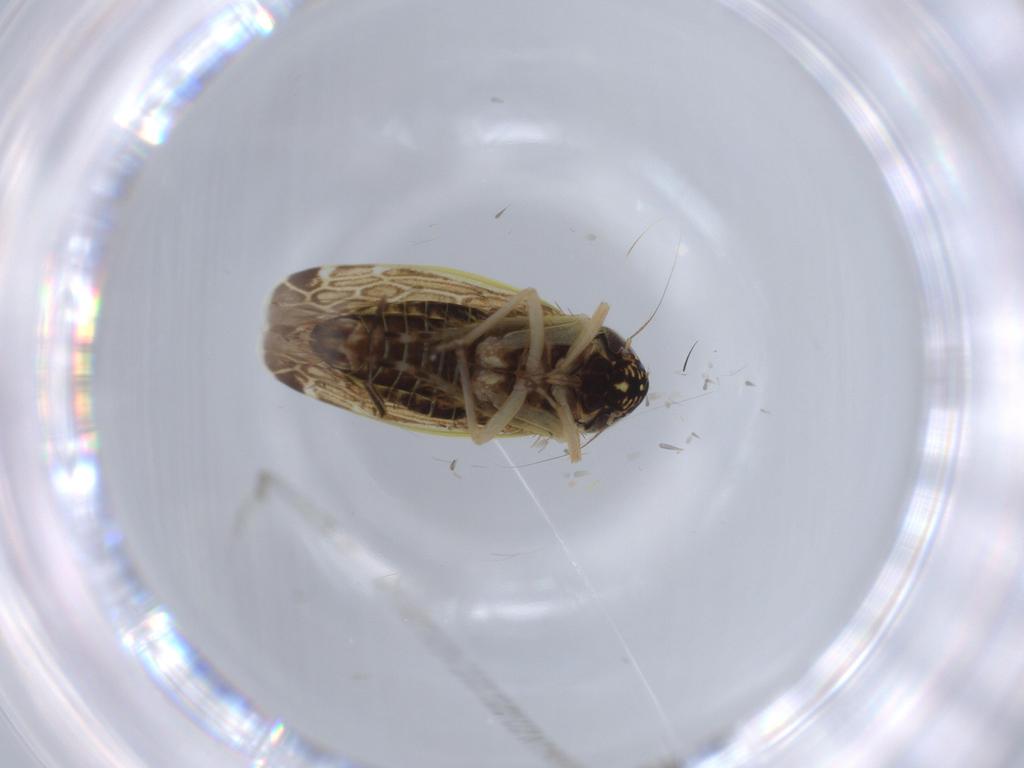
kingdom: Animalia
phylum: Arthropoda
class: Insecta
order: Hemiptera
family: Cicadellidae
